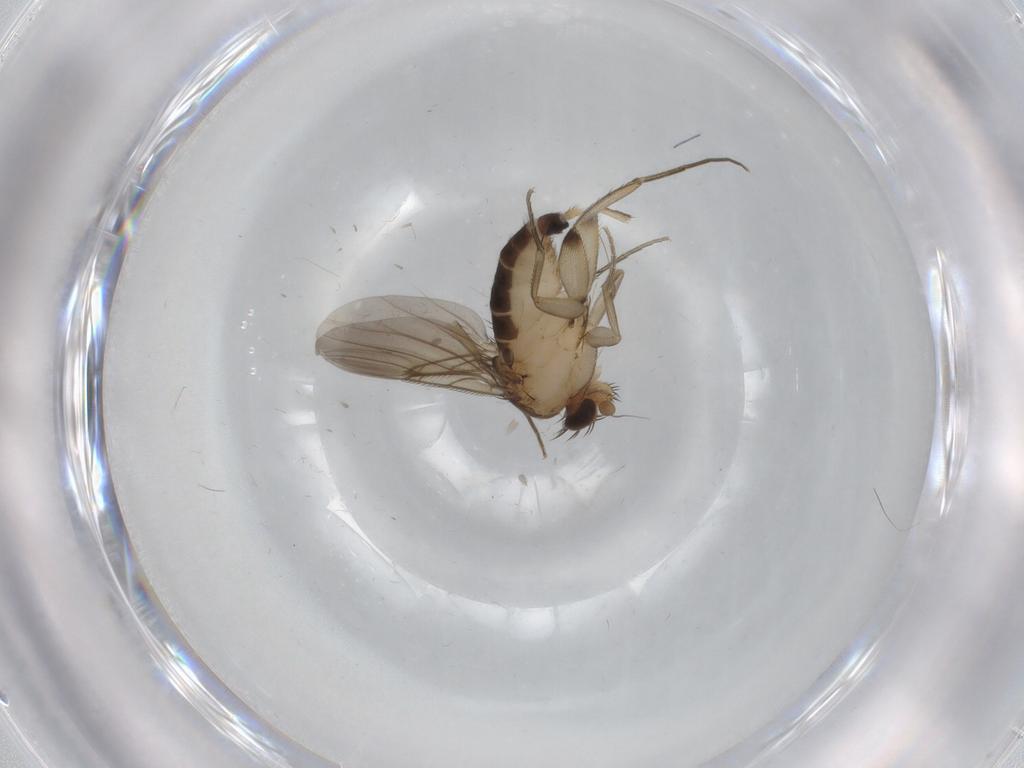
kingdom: Animalia
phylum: Arthropoda
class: Insecta
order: Diptera
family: Phoridae
